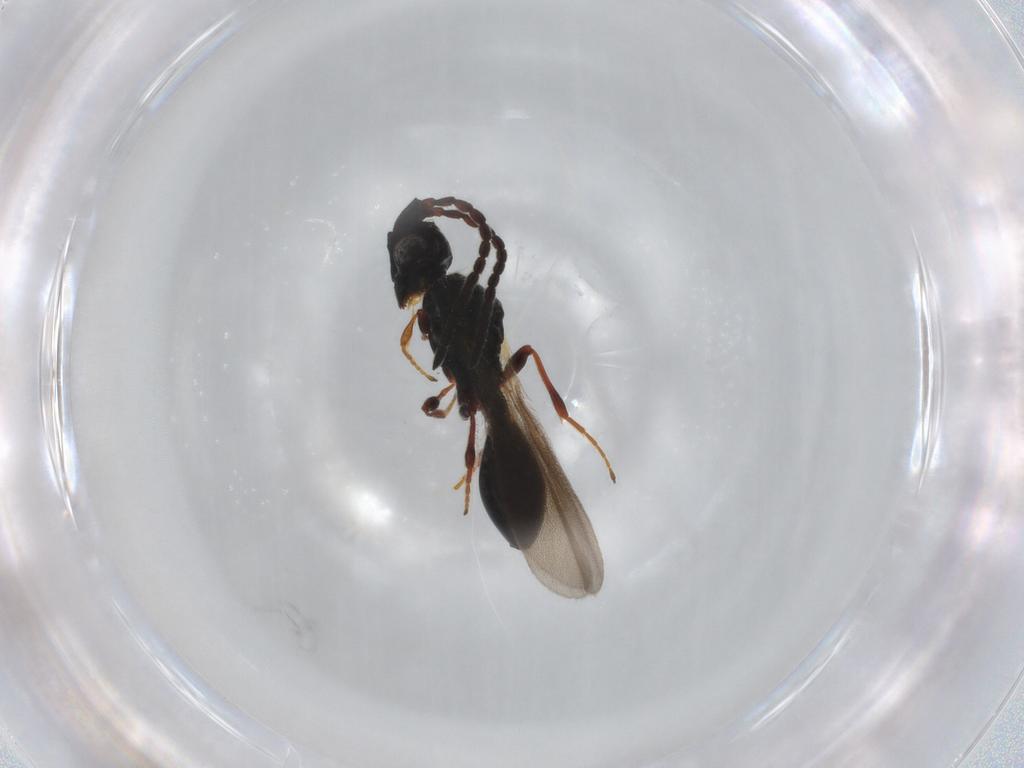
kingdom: Animalia
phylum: Arthropoda
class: Insecta
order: Hymenoptera
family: Diapriidae
